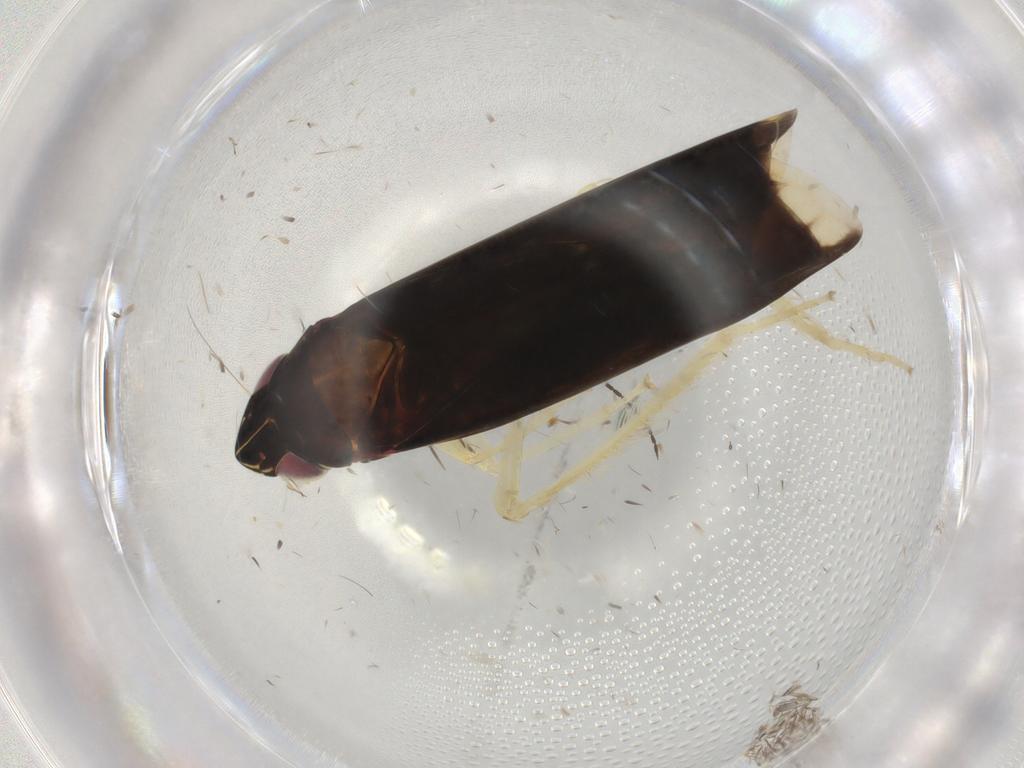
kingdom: Animalia
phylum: Arthropoda
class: Insecta
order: Hemiptera
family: Cicadellidae
